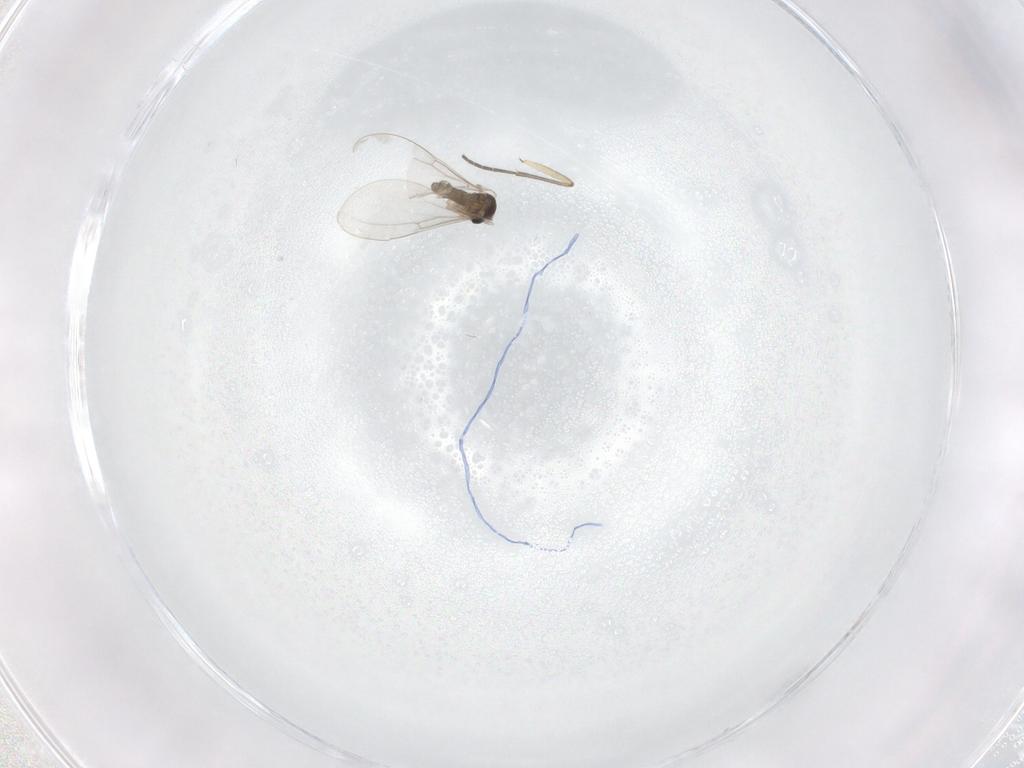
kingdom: Animalia
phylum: Arthropoda
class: Insecta
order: Diptera
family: Cecidomyiidae
